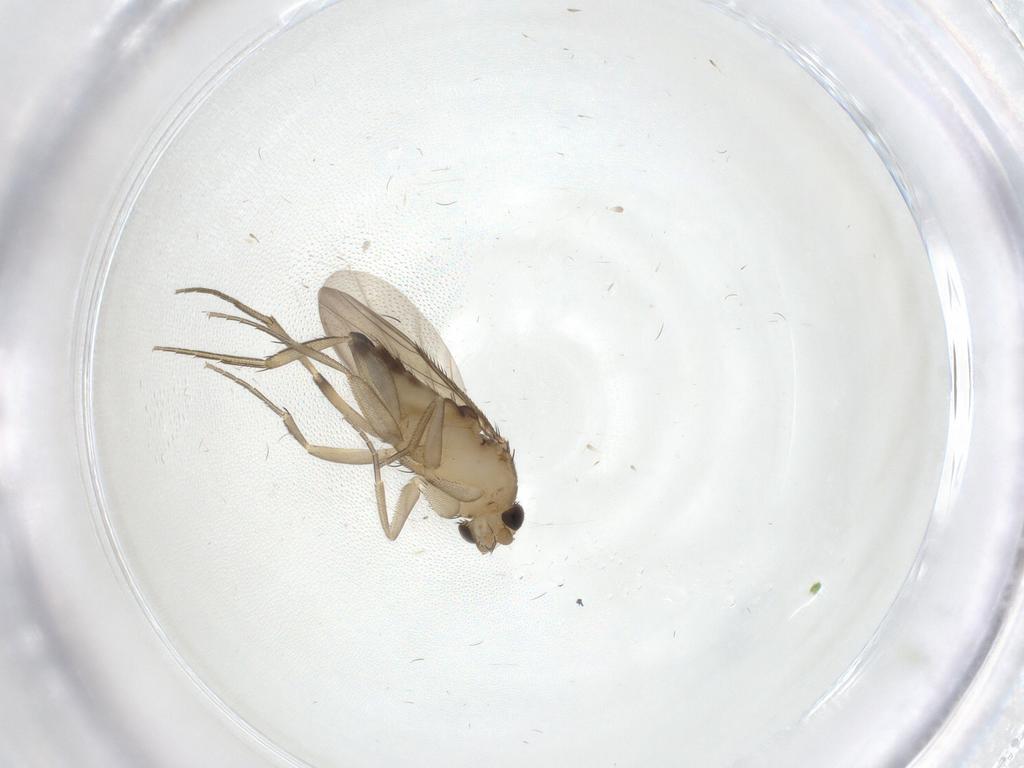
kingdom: Animalia
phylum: Arthropoda
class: Insecta
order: Diptera
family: Phoridae
